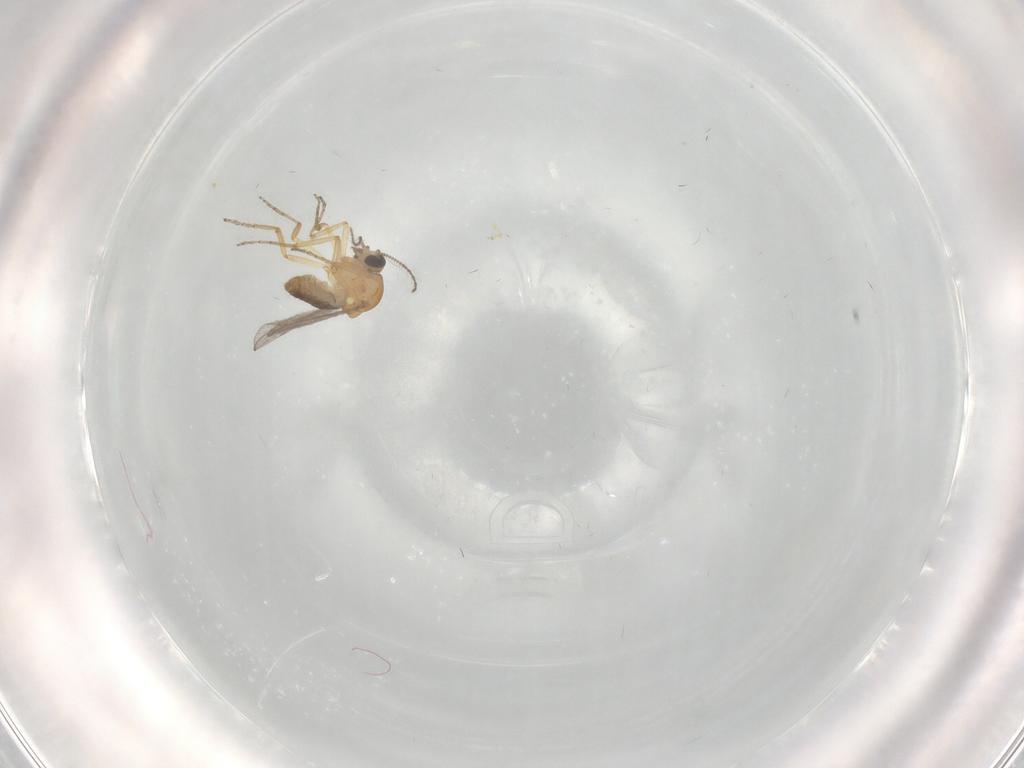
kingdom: Animalia
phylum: Arthropoda
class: Insecta
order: Diptera
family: Ceratopogonidae
